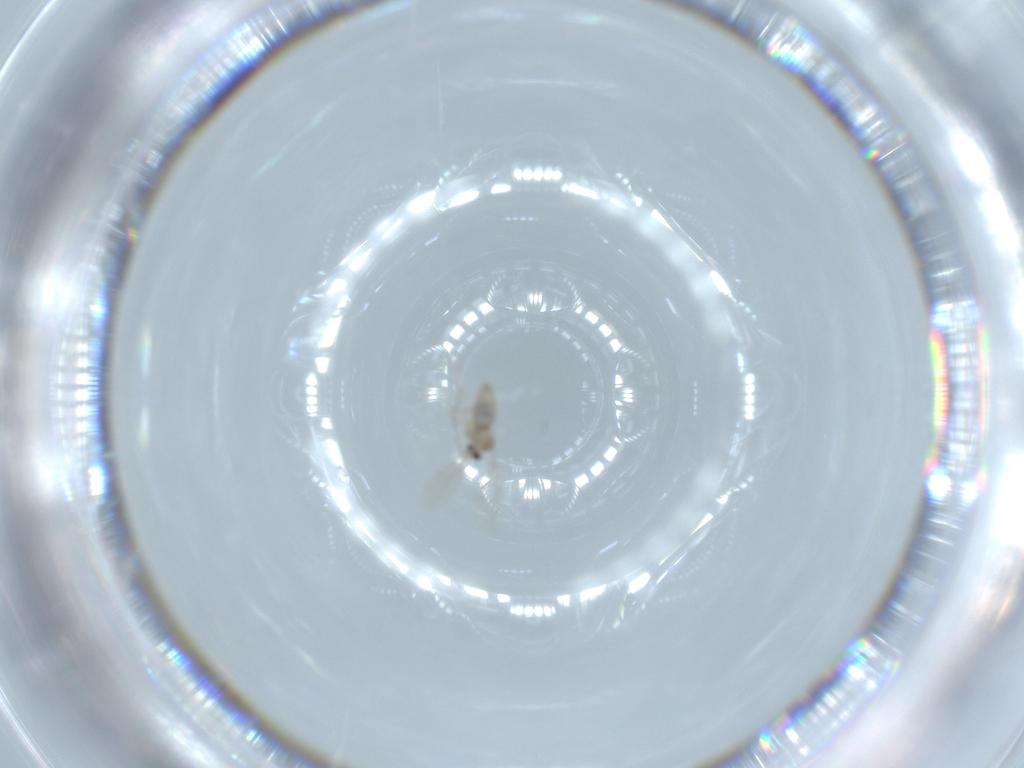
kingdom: Animalia
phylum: Arthropoda
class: Insecta
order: Diptera
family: Cecidomyiidae
